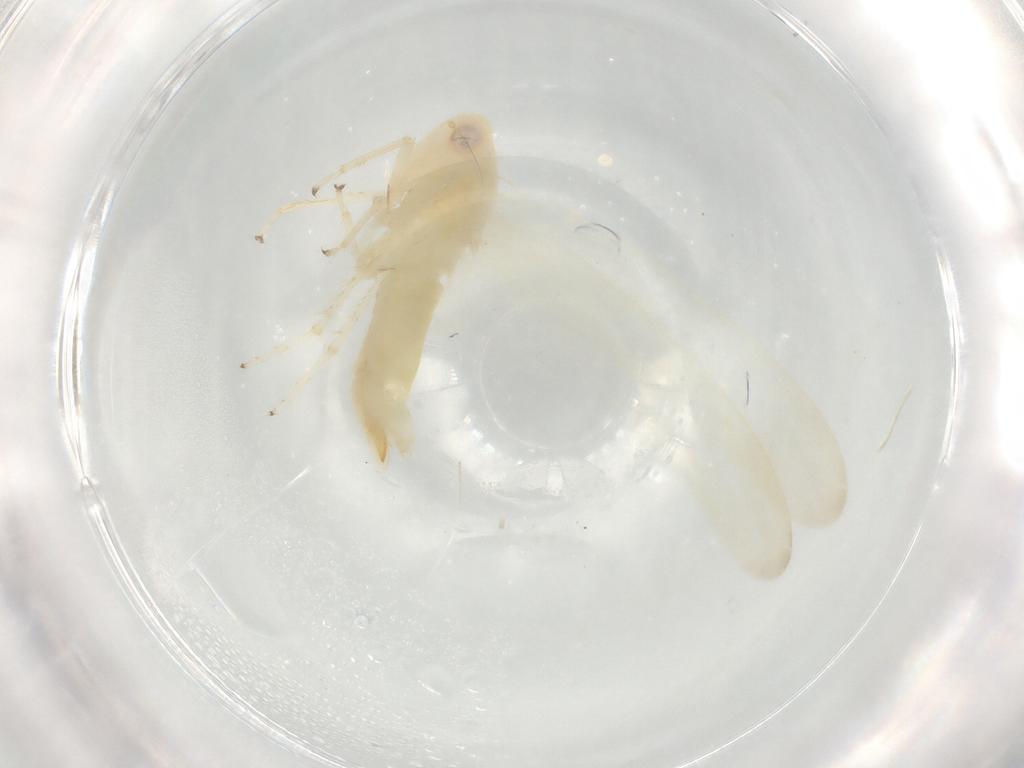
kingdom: Animalia
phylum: Arthropoda
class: Insecta
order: Hemiptera
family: Cicadellidae
